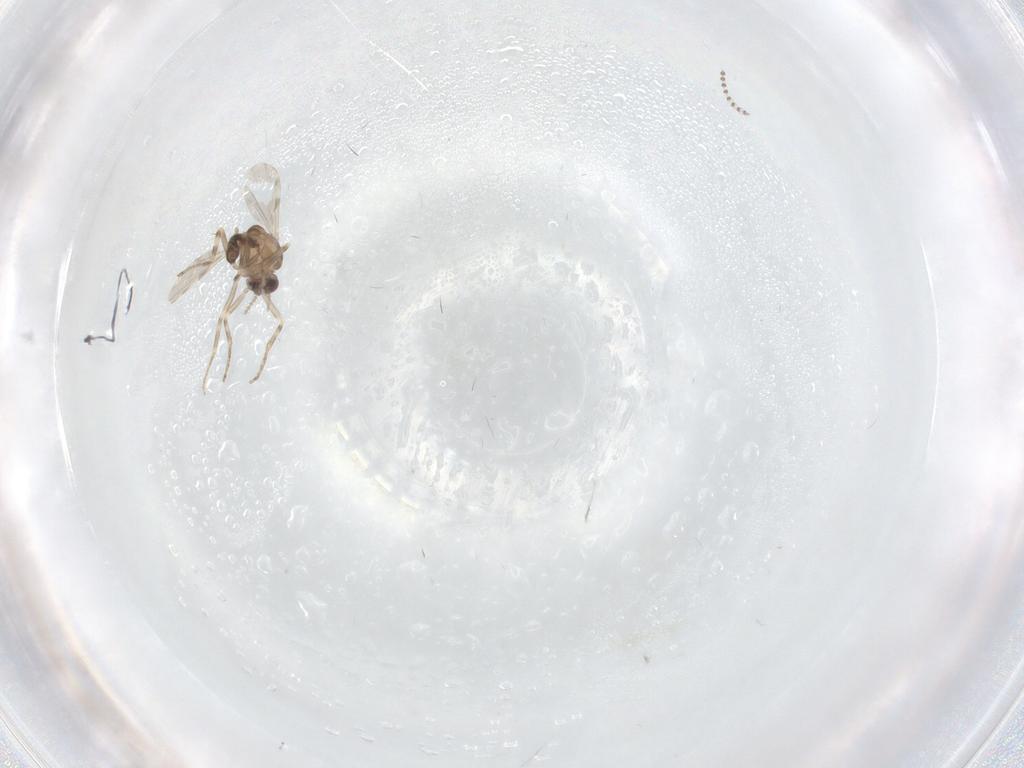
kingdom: Animalia
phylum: Arthropoda
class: Insecta
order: Diptera
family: Ceratopogonidae
